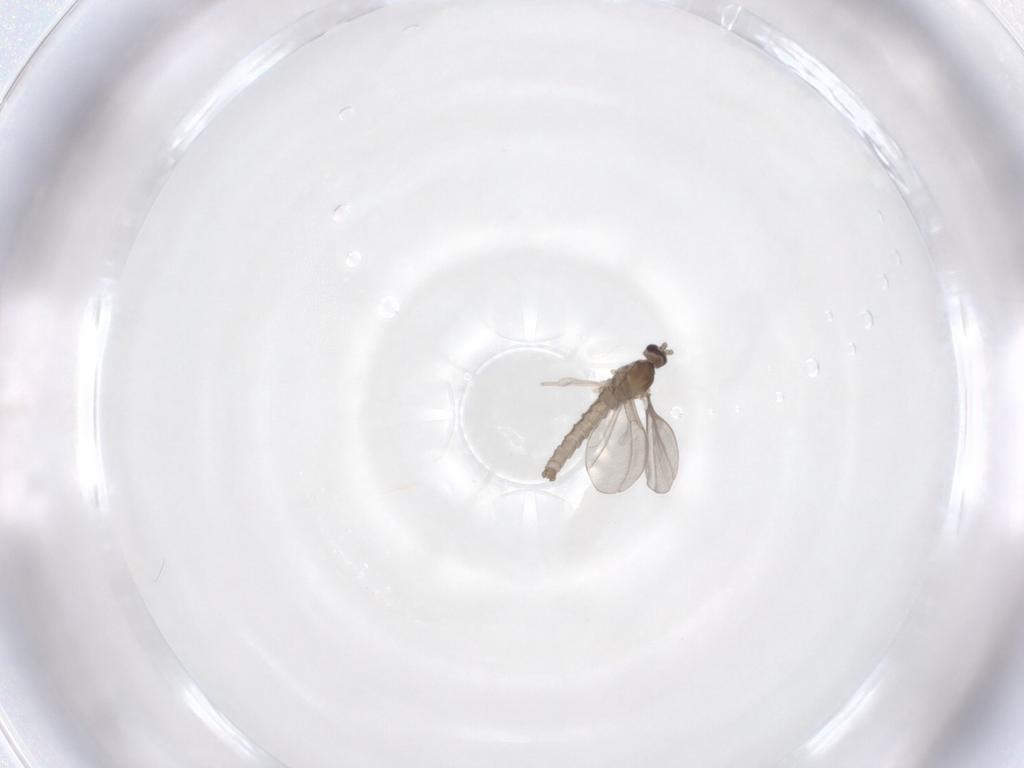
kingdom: Animalia
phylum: Arthropoda
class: Insecta
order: Diptera
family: Cecidomyiidae
